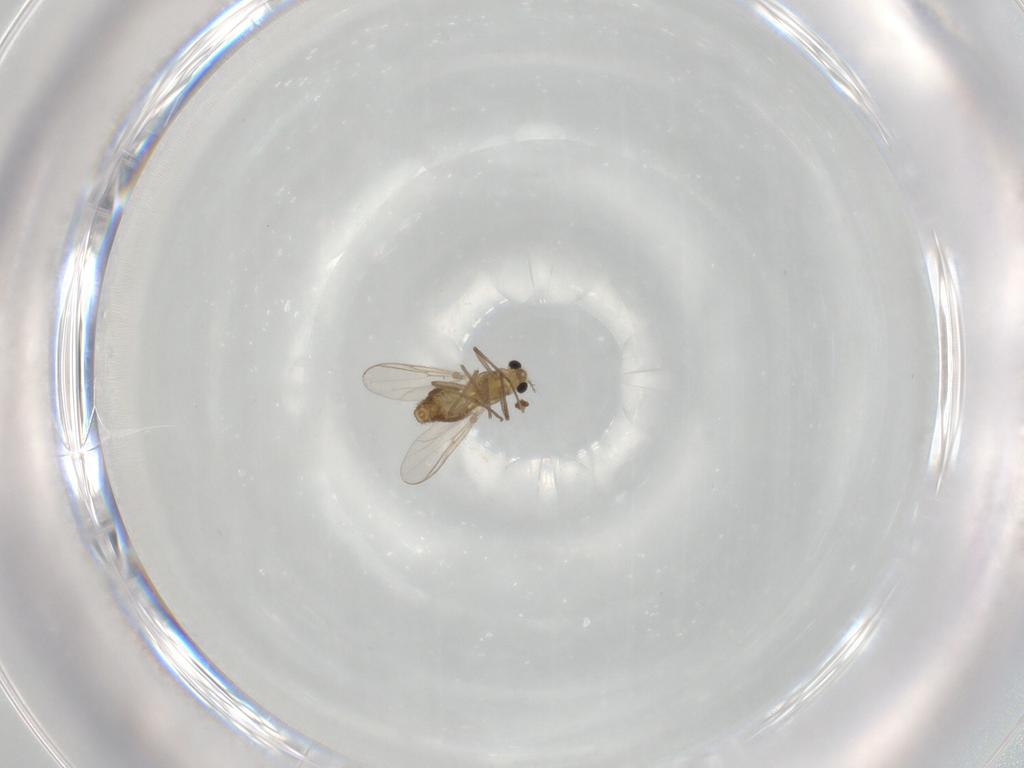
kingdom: Animalia
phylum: Arthropoda
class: Insecta
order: Diptera
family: Chironomidae
